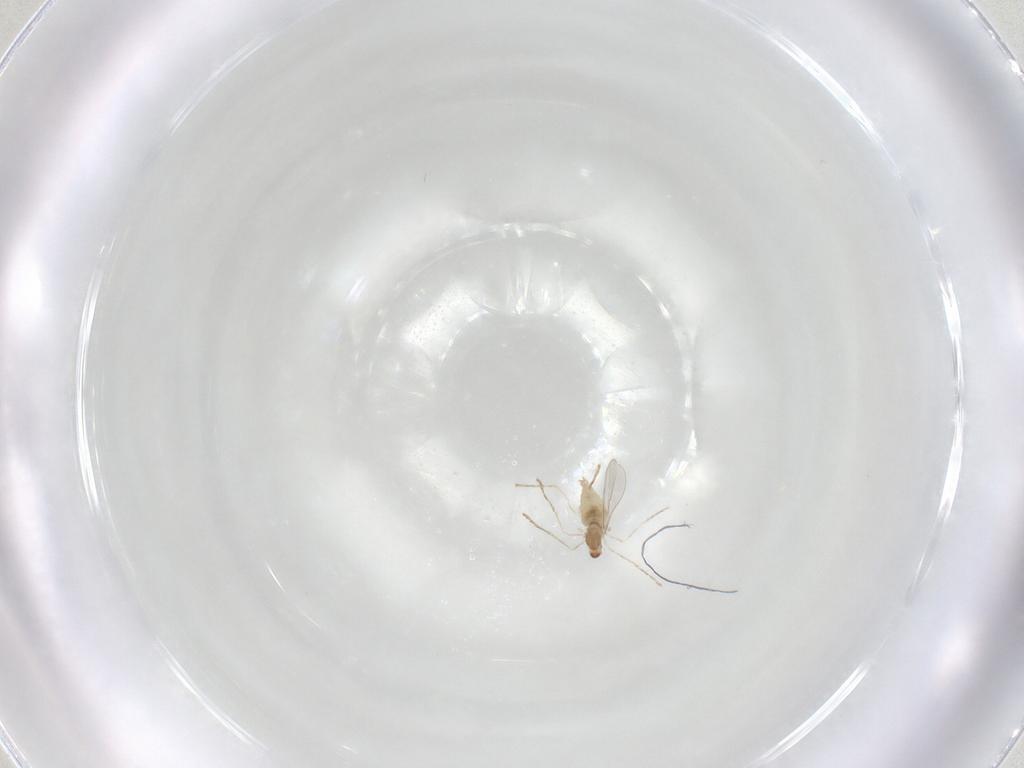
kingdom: Animalia
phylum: Arthropoda
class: Insecta
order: Diptera
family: Cecidomyiidae
